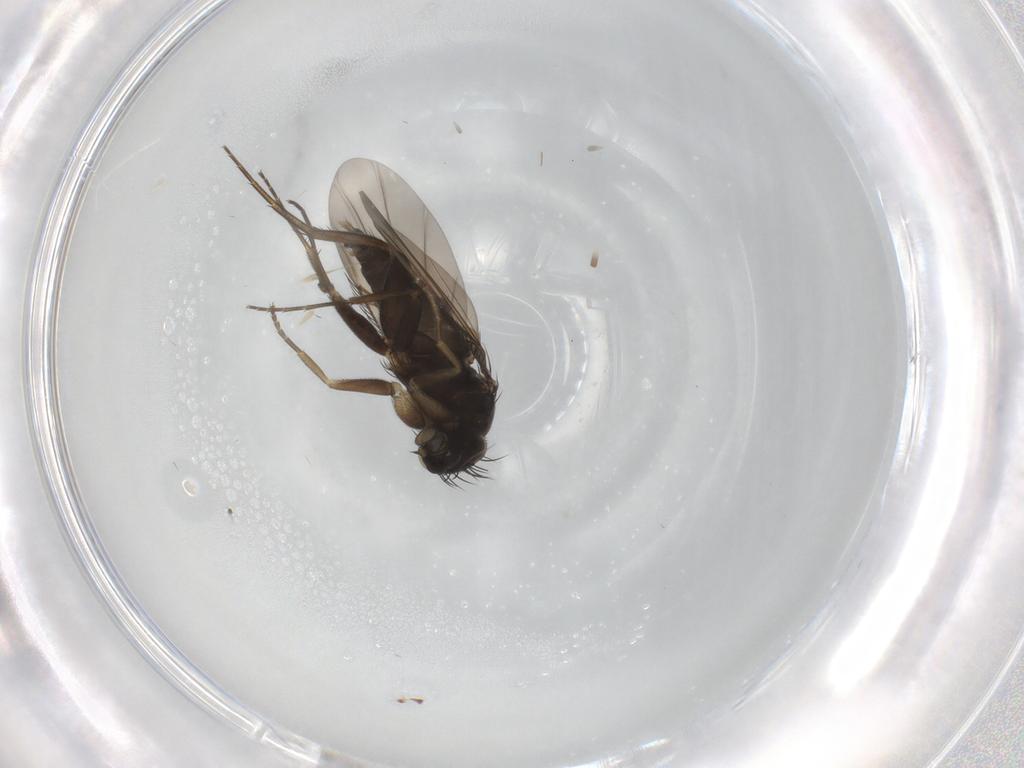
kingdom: Animalia
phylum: Arthropoda
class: Insecta
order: Diptera
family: Phoridae
